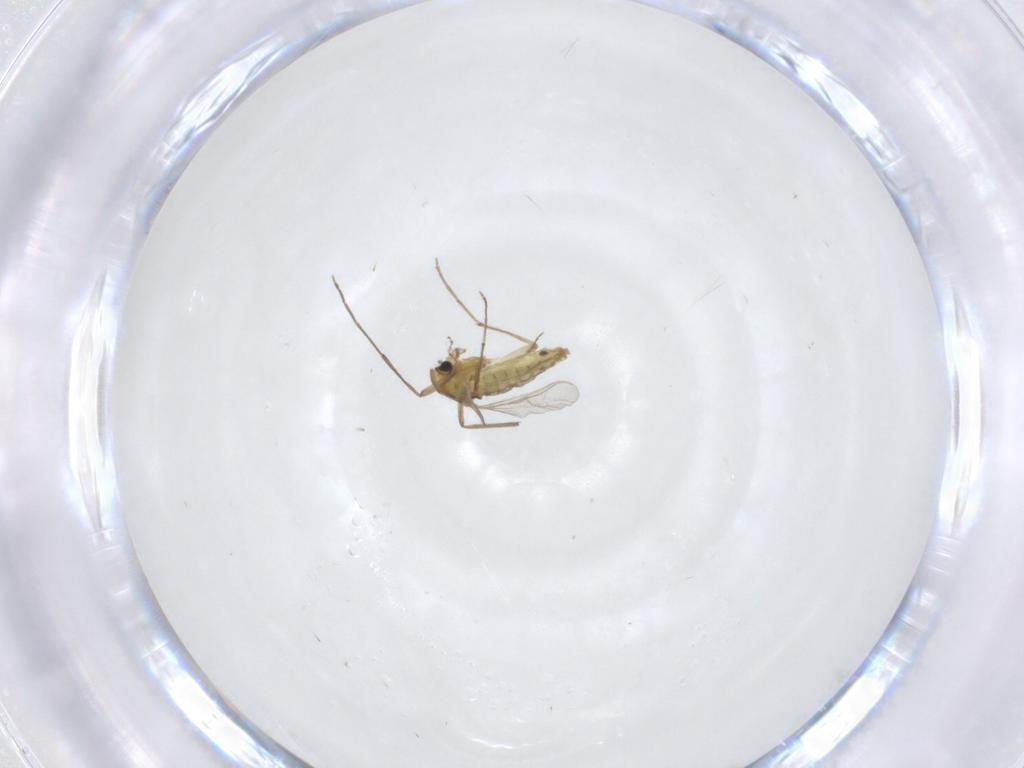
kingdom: Animalia
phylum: Arthropoda
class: Insecta
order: Diptera
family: Chironomidae
